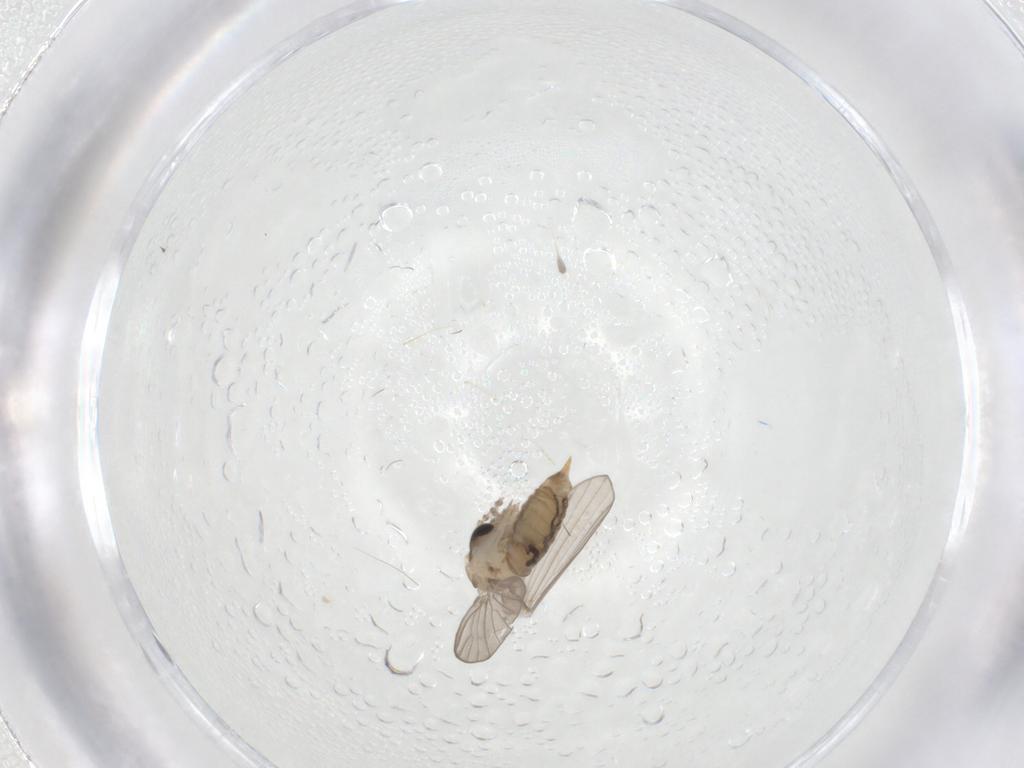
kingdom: Animalia
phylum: Arthropoda
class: Insecta
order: Diptera
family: Psychodidae
